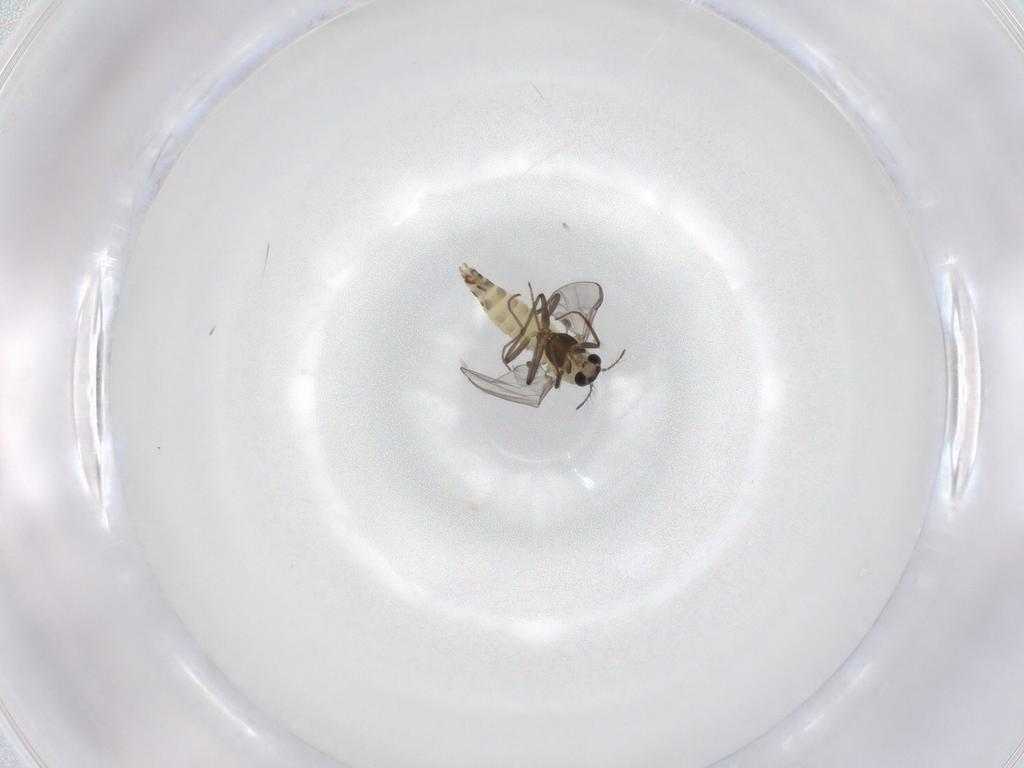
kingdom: Animalia
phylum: Arthropoda
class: Insecta
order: Diptera
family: Chironomidae
